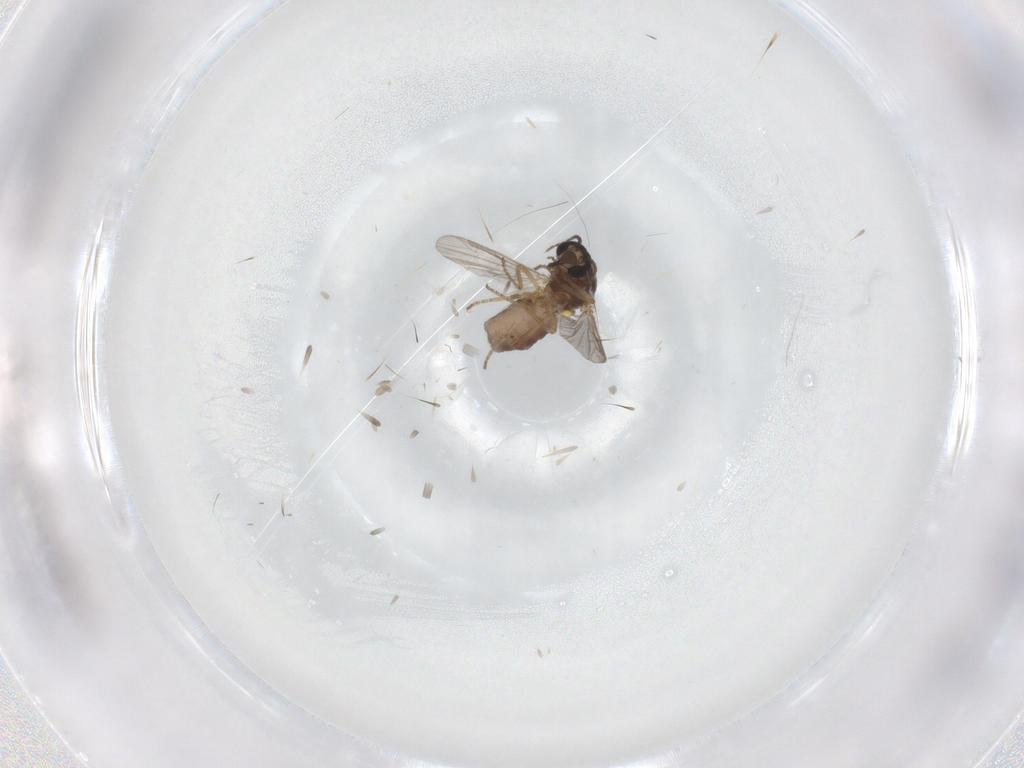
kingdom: Animalia
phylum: Arthropoda
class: Insecta
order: Diptera
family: Ceratopogonidae
